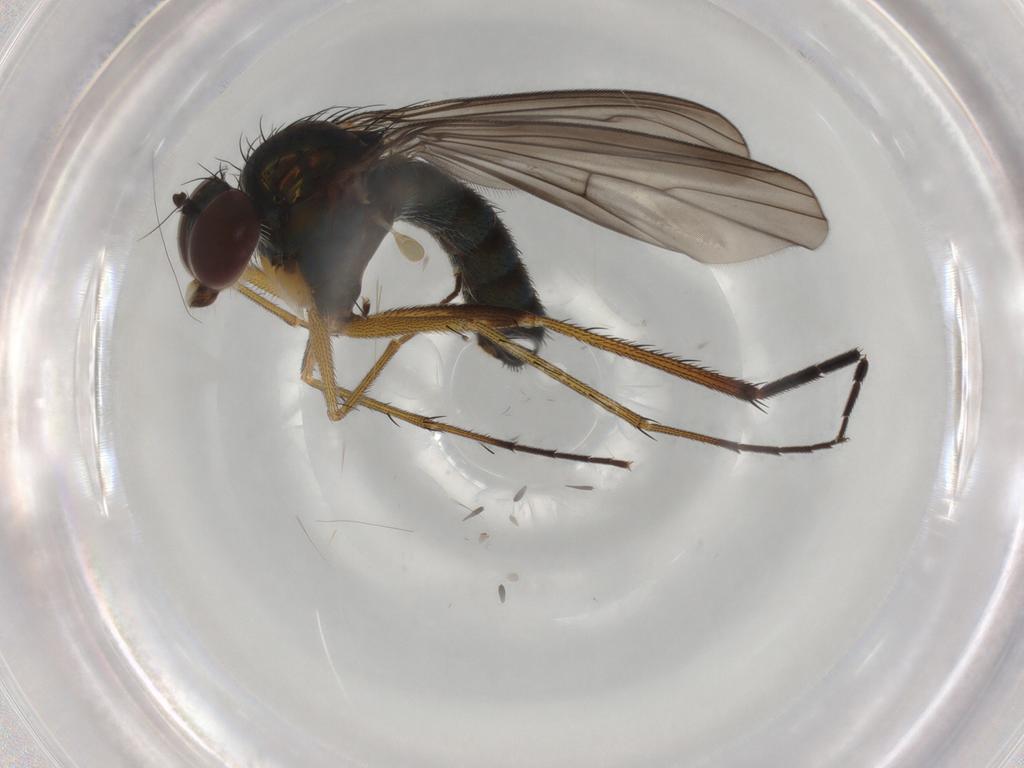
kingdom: Animalia
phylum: Arthropoda
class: Insecta
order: Diptera
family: Dolichopodidae
